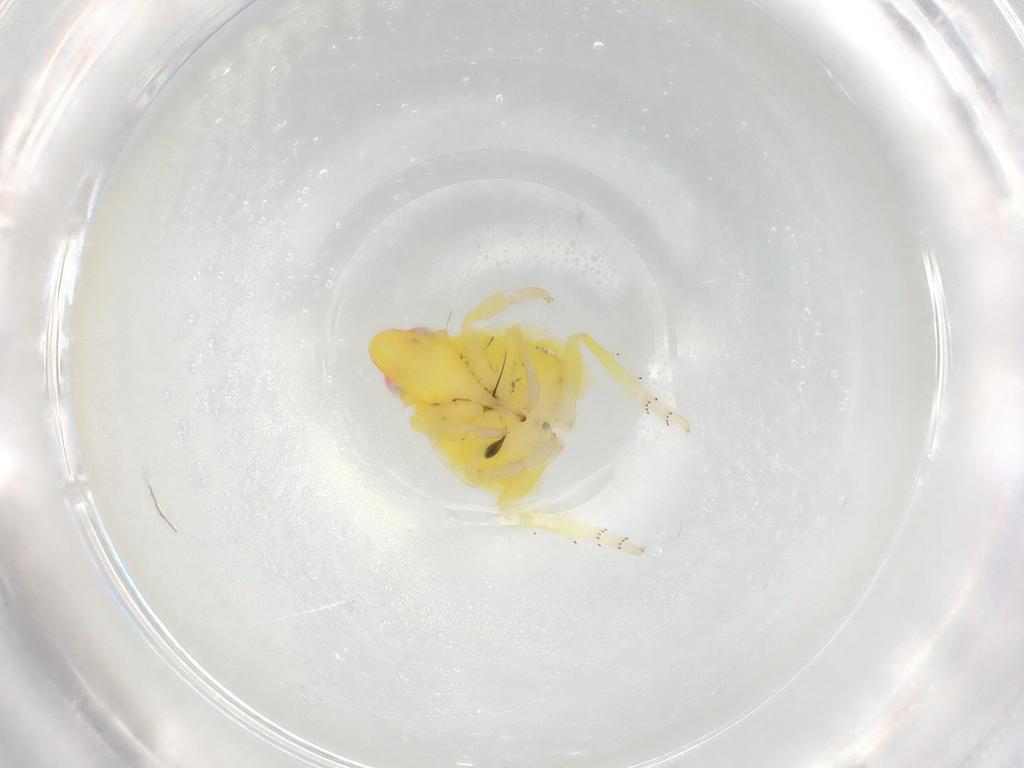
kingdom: Animalia
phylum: Arthropoda
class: Insecta
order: Hemiptera
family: Tropiduchidae
